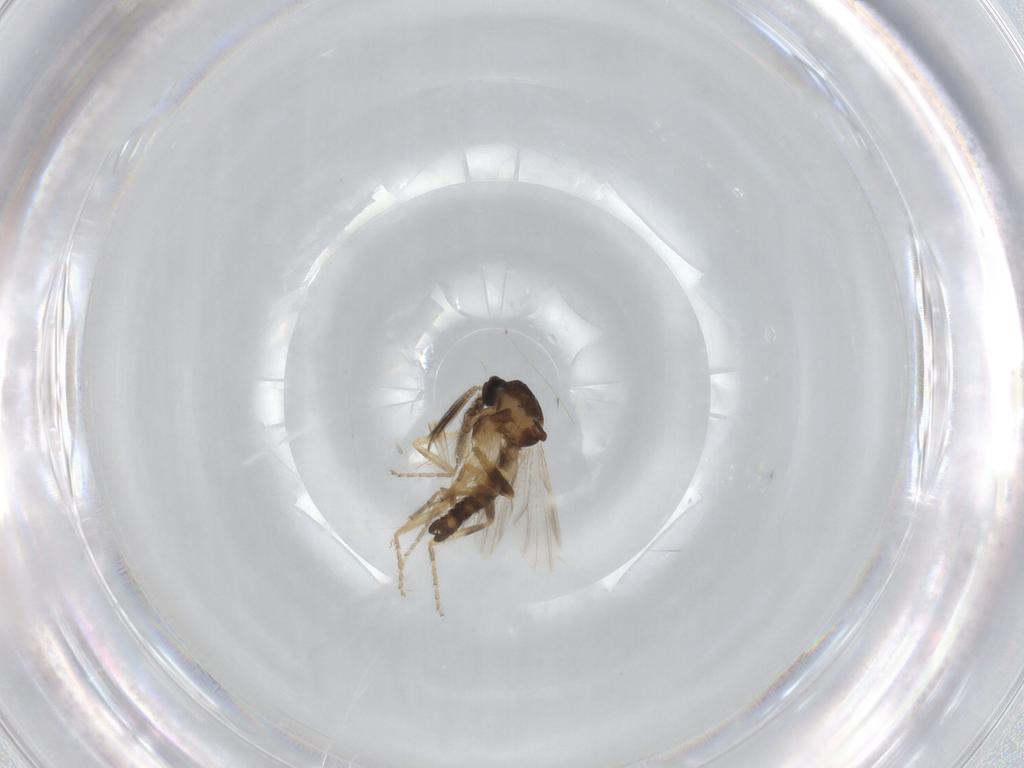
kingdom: Animalia
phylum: Arthropoda
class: Insecta
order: Diptera
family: Ceratopogonidae
